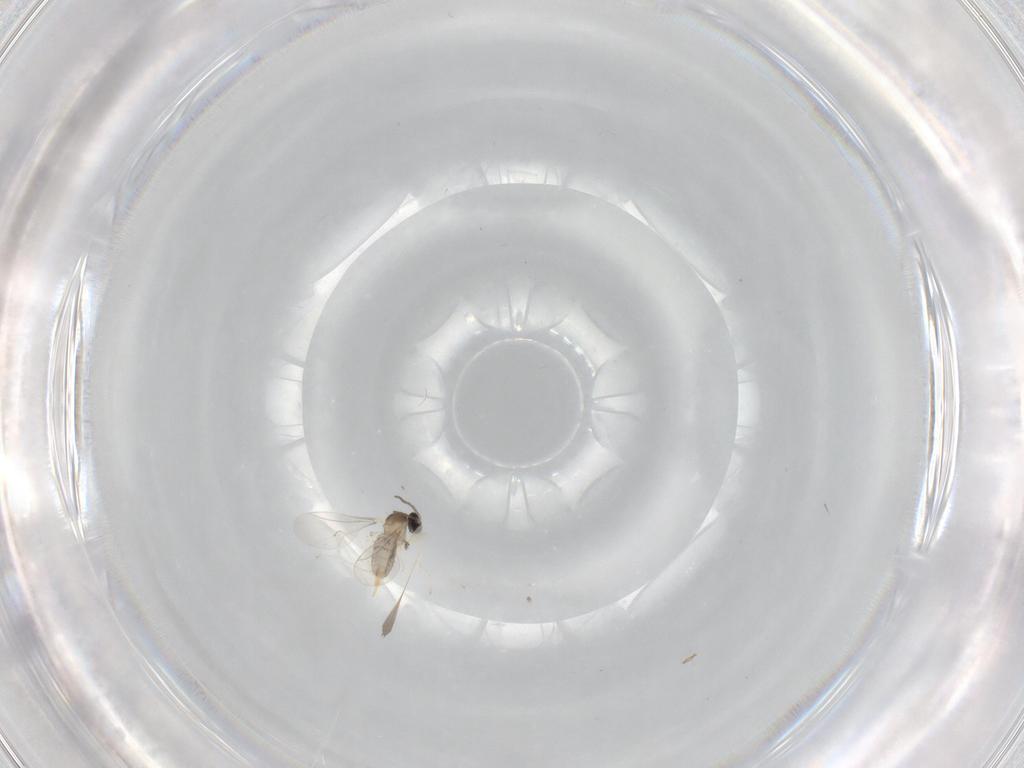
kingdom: Animalia
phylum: Arthropoda
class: Insecta
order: Diptera
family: Cecidomyiidae
